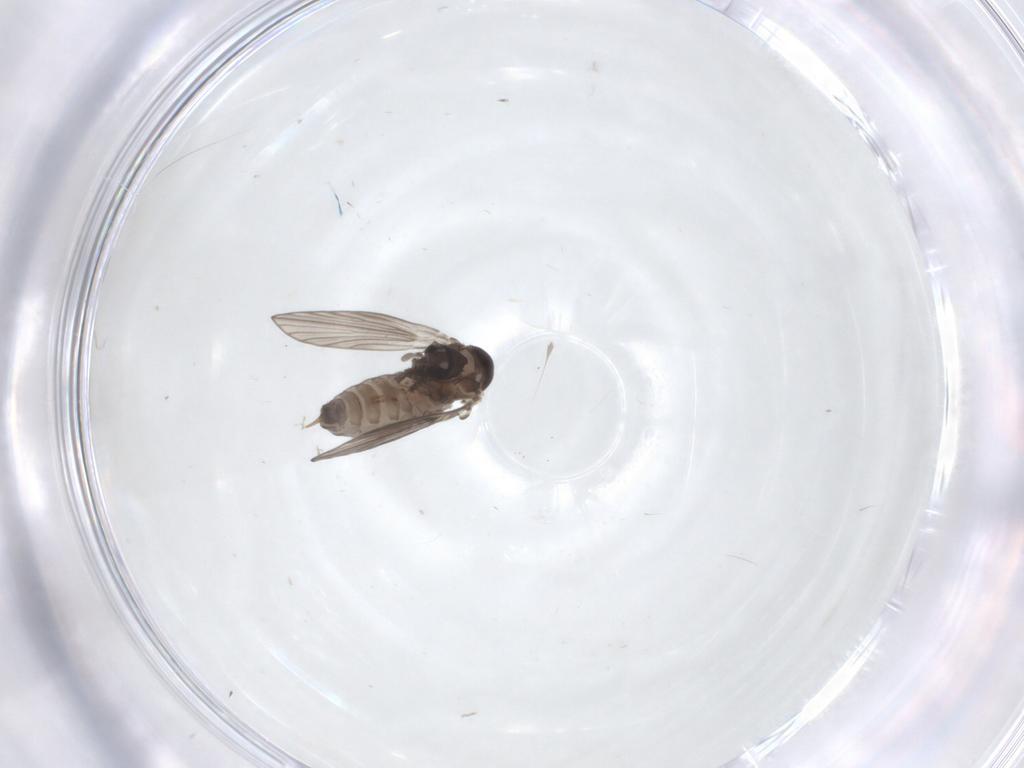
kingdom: Animalia
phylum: Arthropoda
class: Insecta
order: Diptera
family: Psychodidae
